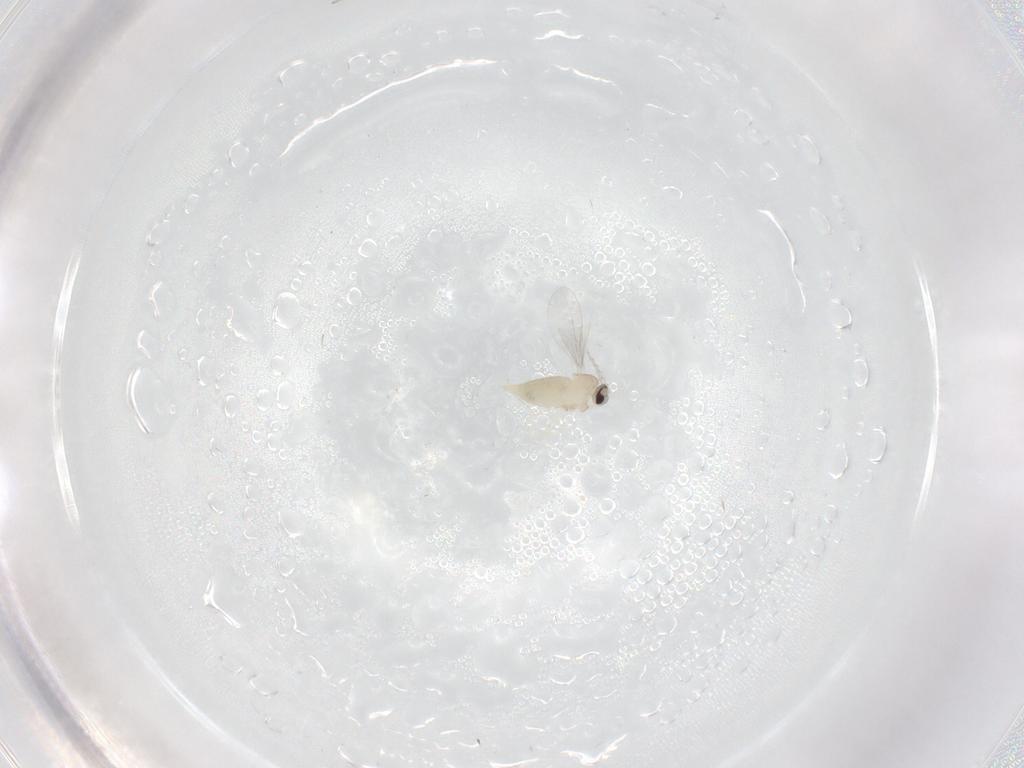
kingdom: Animalia
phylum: Arthropoda
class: Insecta
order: Diptera
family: Cecidomyiidae
